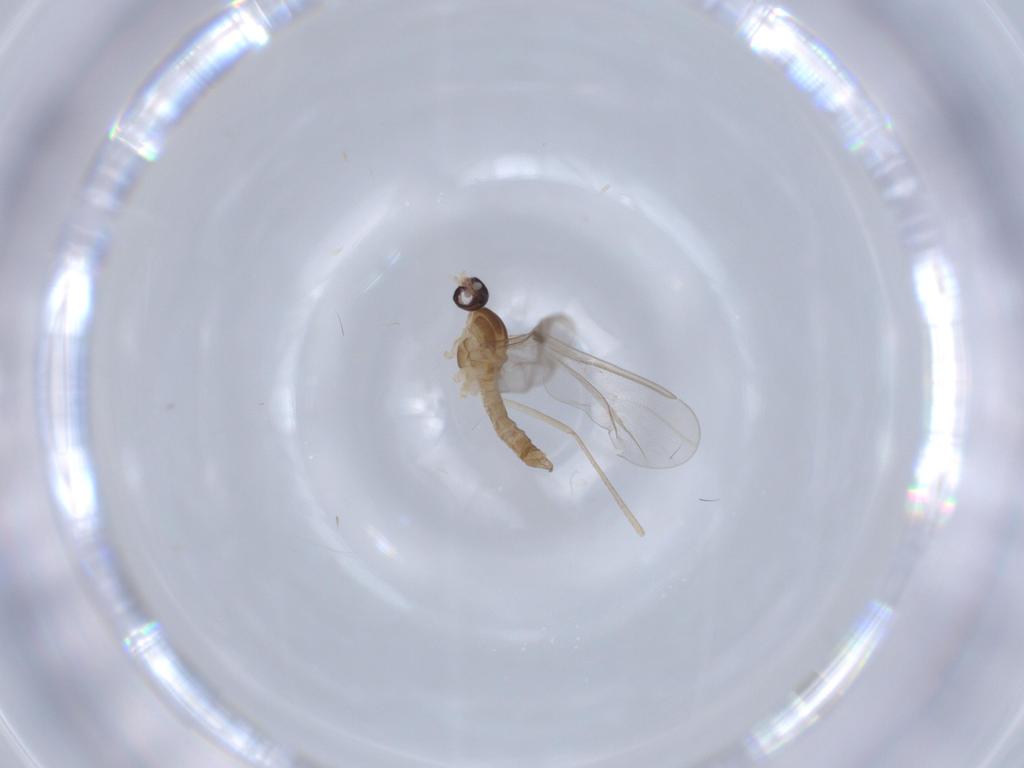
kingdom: Animalia
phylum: Arthropoda
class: Insecta
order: Diptera
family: Cecidomyiidae
